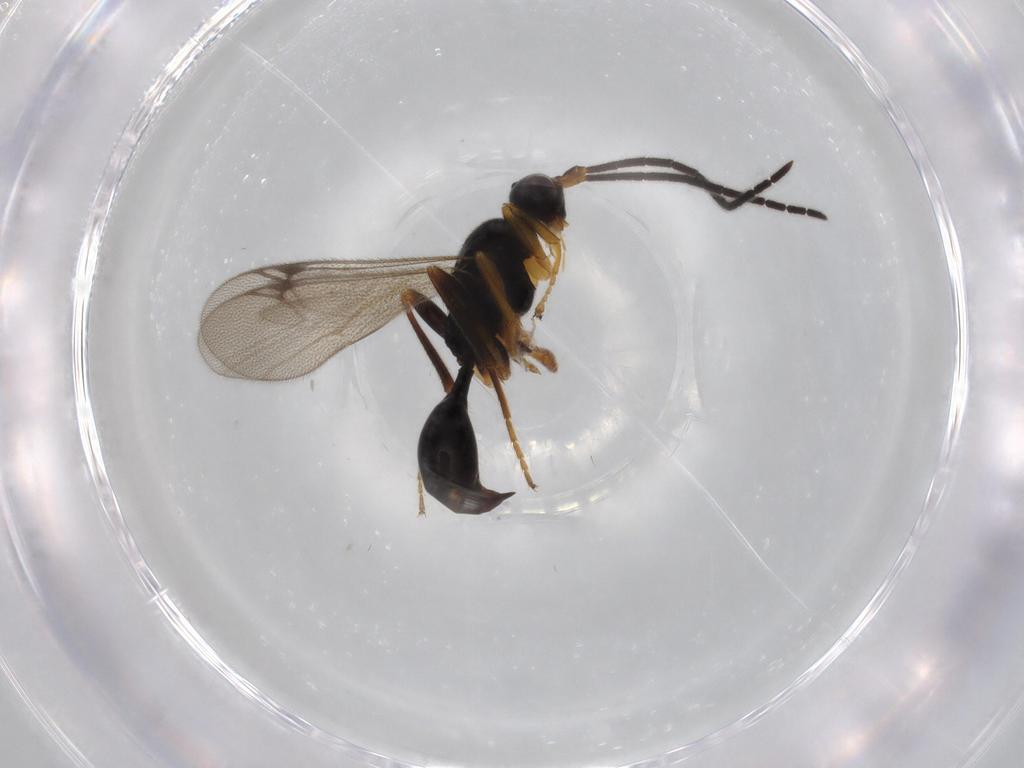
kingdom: Animalia
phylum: Arthropoda
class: Insecta
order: Hymenoptera
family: Proctotrupidae
